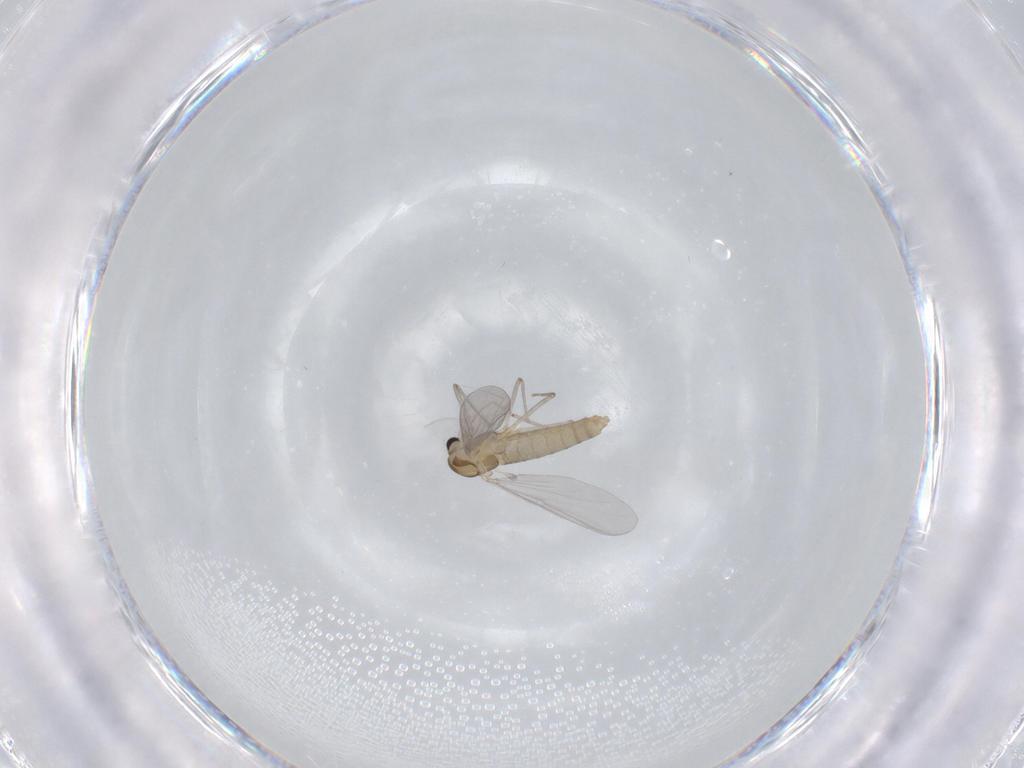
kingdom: Animalia
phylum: Arthropoda
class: Insecta
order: Diptera
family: Chironomidae
